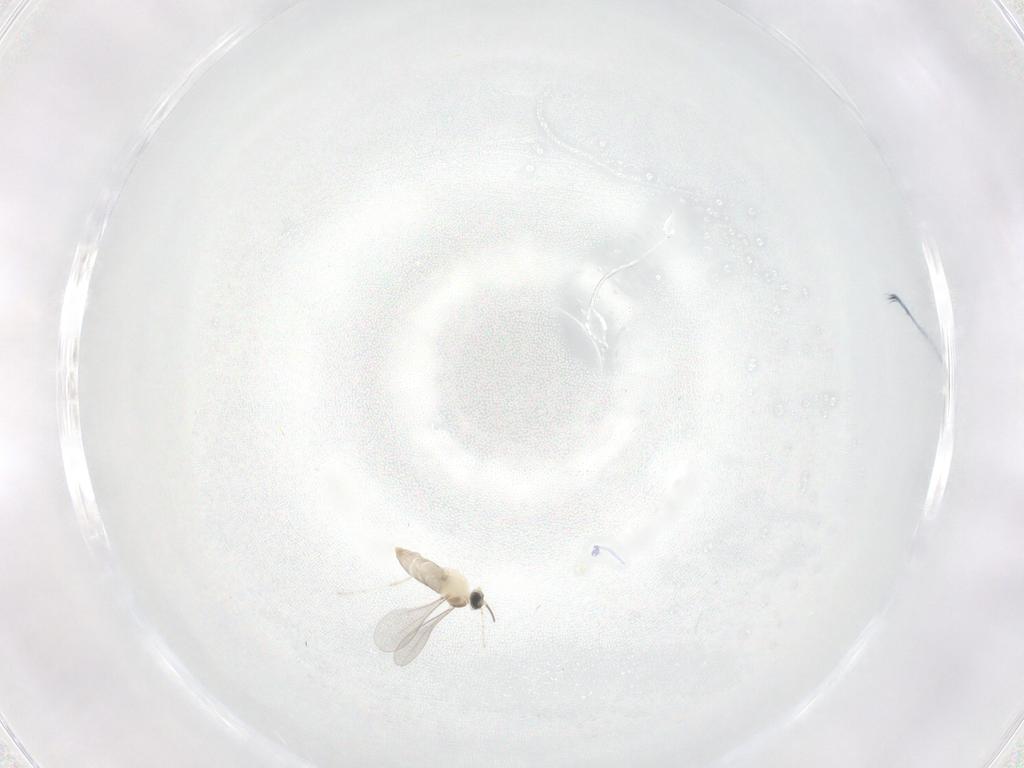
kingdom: Animalia
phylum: Arthropoda
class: Insecta
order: Diptera
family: Cecidomyiidae
